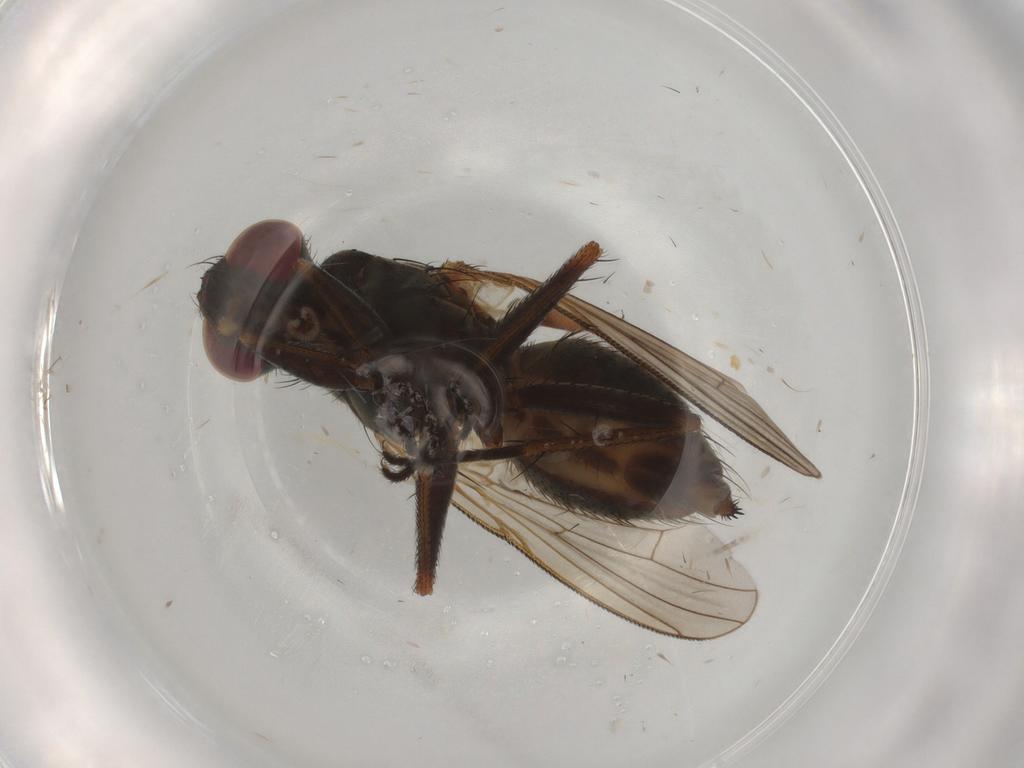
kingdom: Animalia
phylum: Arthropoda
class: Insecta
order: Diptera
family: Muscidae
